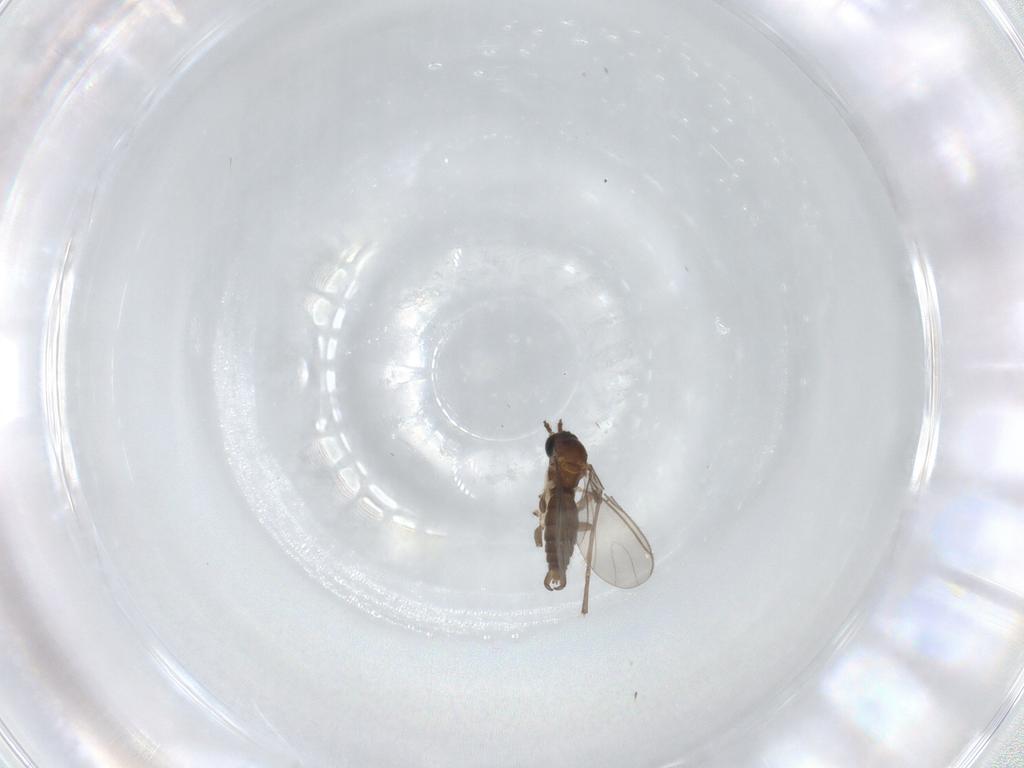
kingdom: Animalia
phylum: Arthropoda
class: Insecta
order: Diptera
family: Sciaridae
